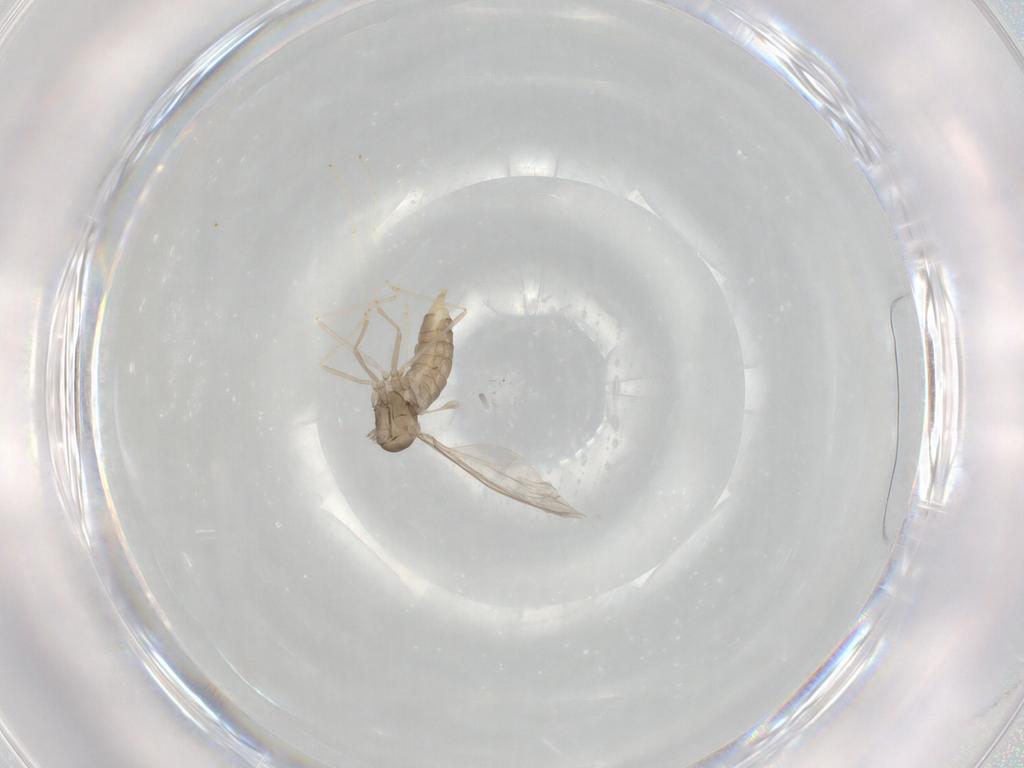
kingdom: Animalia
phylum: Arthropoda
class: Insecta
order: Diptera
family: Cecidomyiidae
